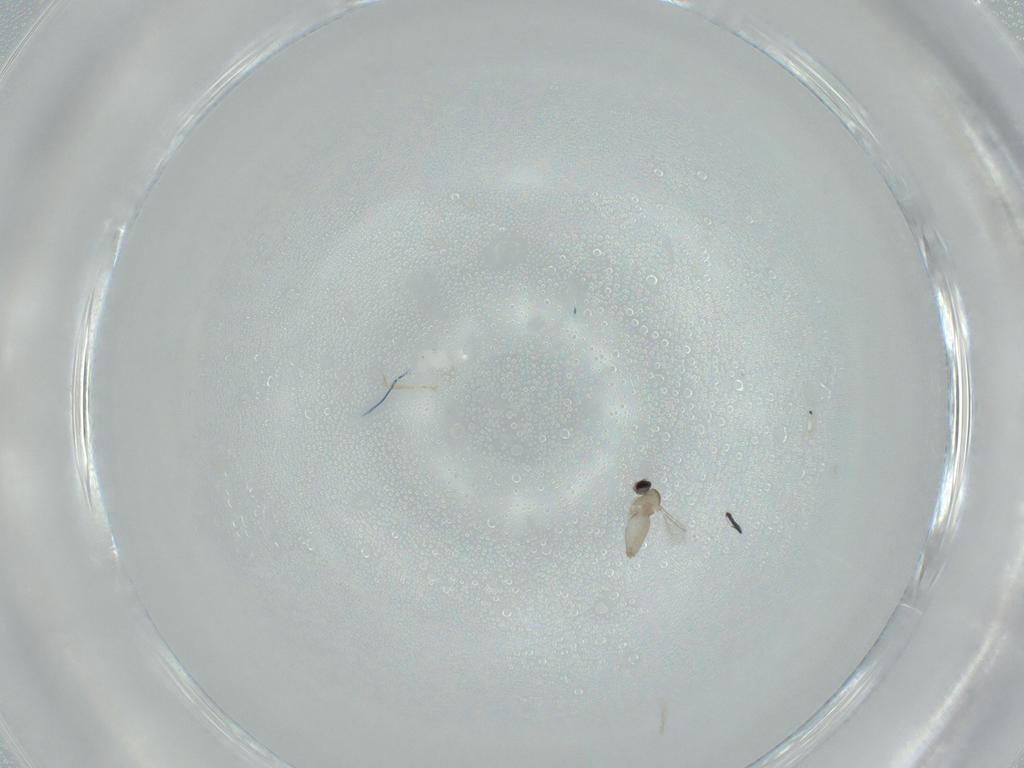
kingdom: Animalia
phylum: Arthropoda
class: Insecta
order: Diptera
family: Cecidomyiidae
